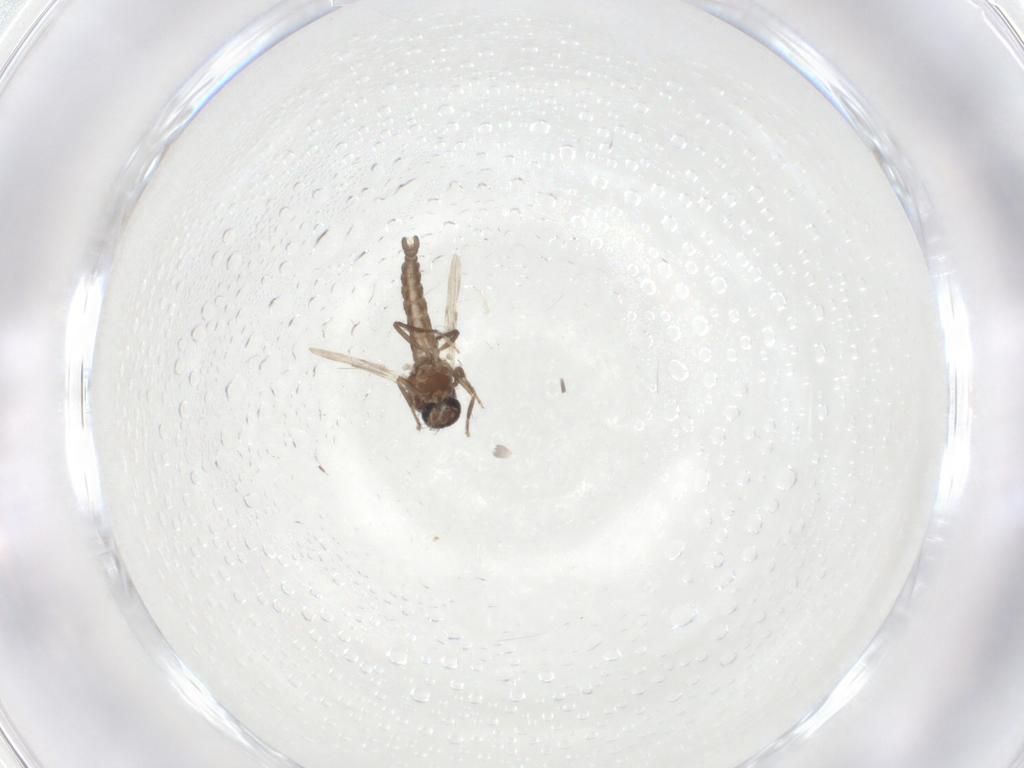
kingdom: Animalia
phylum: Arthropoda
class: Insecta
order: Diptera
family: Ceratopogonidae
